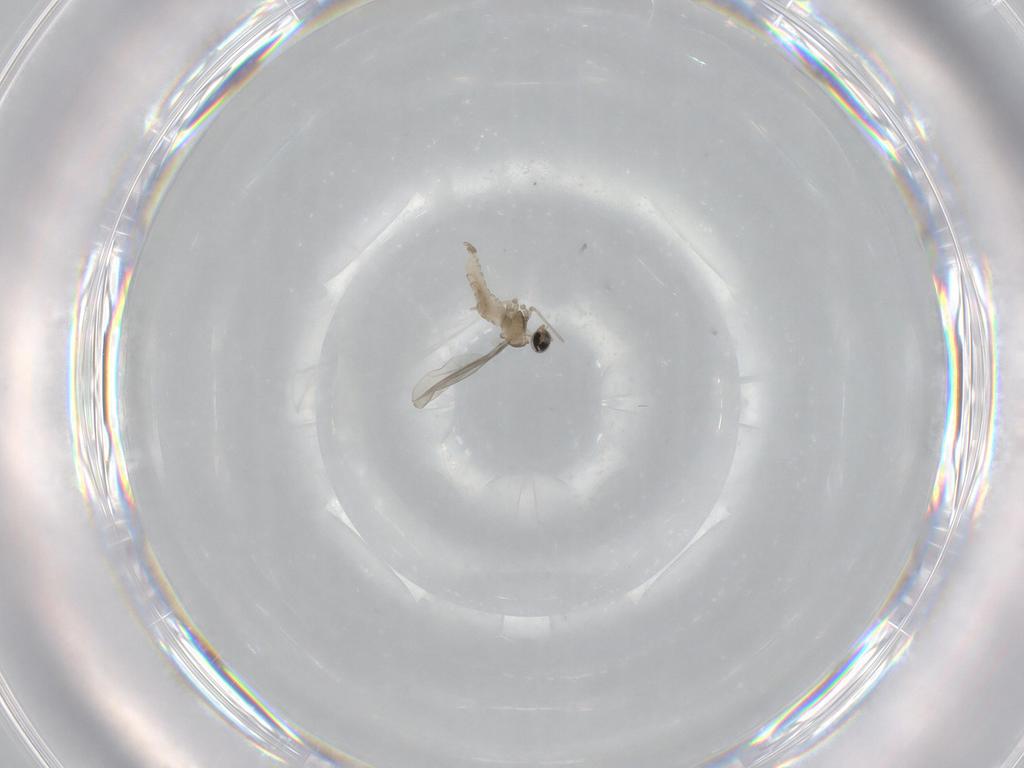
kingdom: Animalia
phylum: Arthropoda
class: Insecta
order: Diptera
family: Cecidomyiidae
